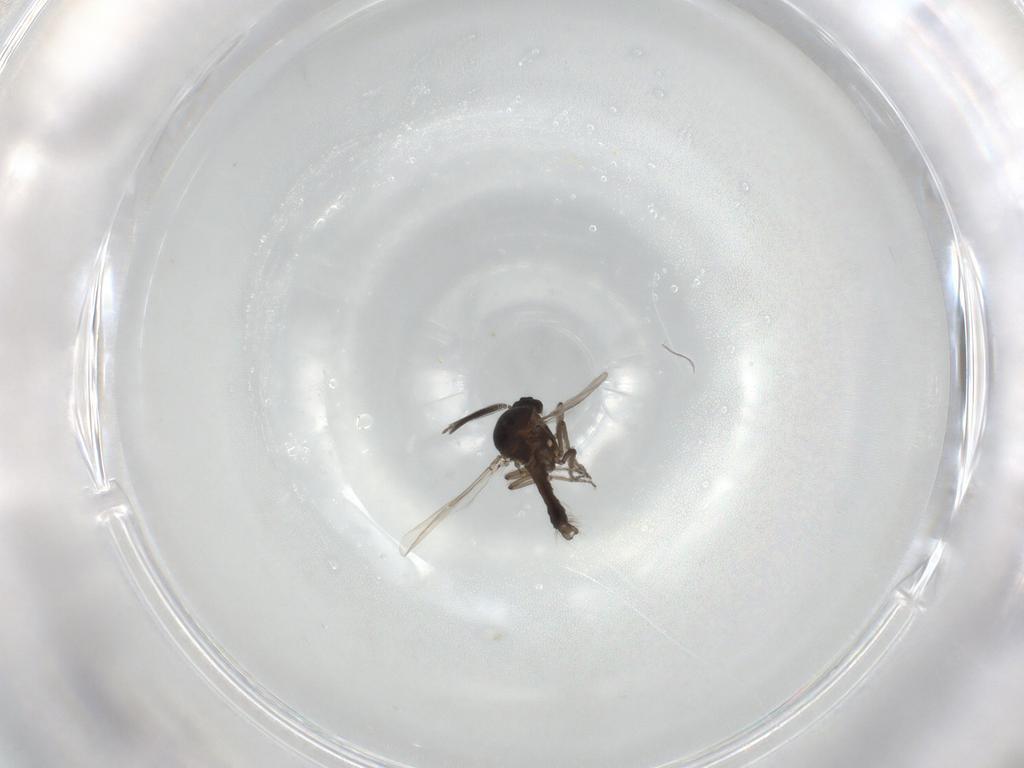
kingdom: Animalia
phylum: Arthropoda
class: Insecta
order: Diptera
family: Ceratopogonidae
